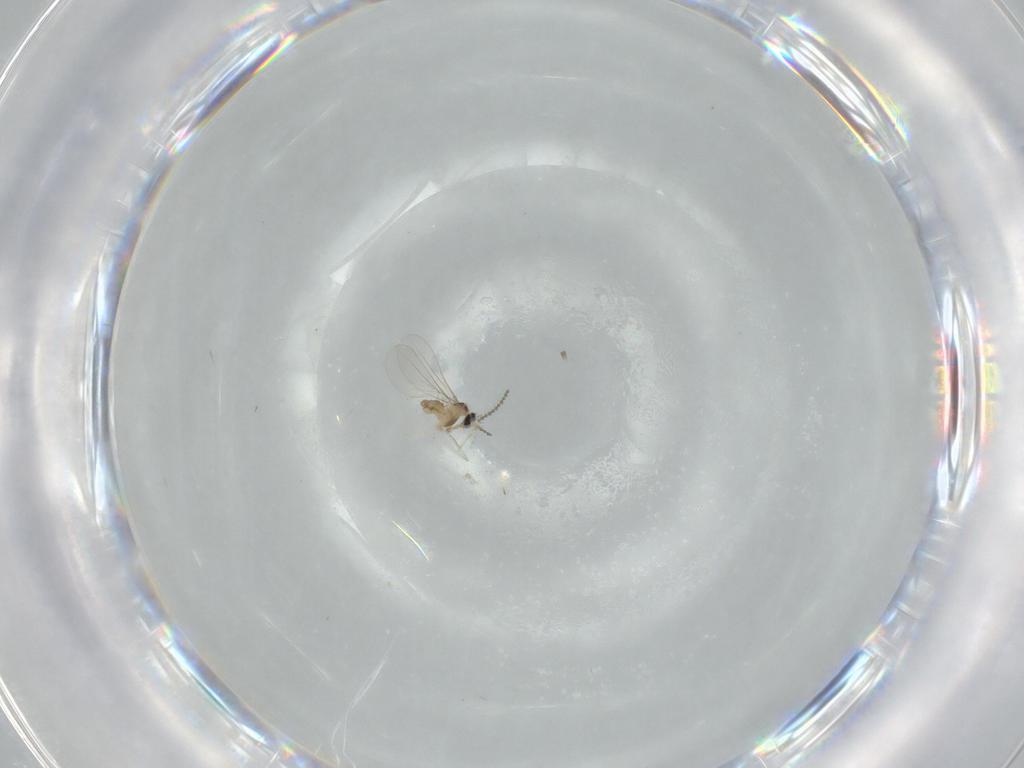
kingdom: Animalia
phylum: Arthropoda
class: Insecta
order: Diptera
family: Cecidomyiidae
